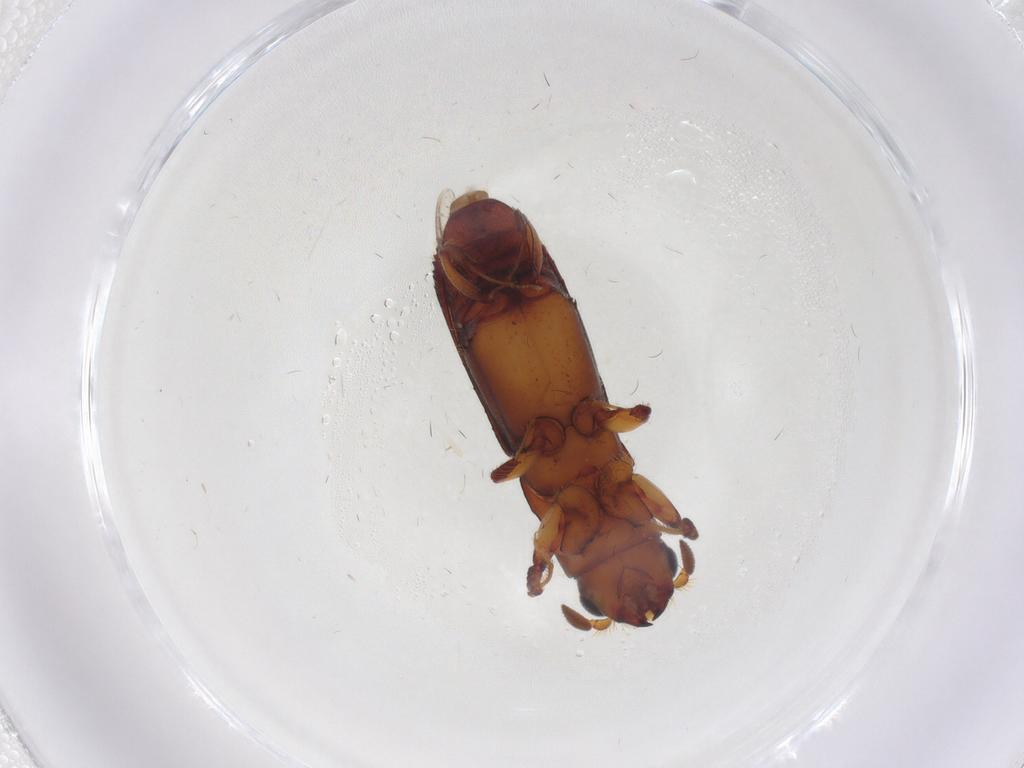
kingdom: Animalia
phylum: Arthropoda
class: Insecta
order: Coleoptera
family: Curculionidae
